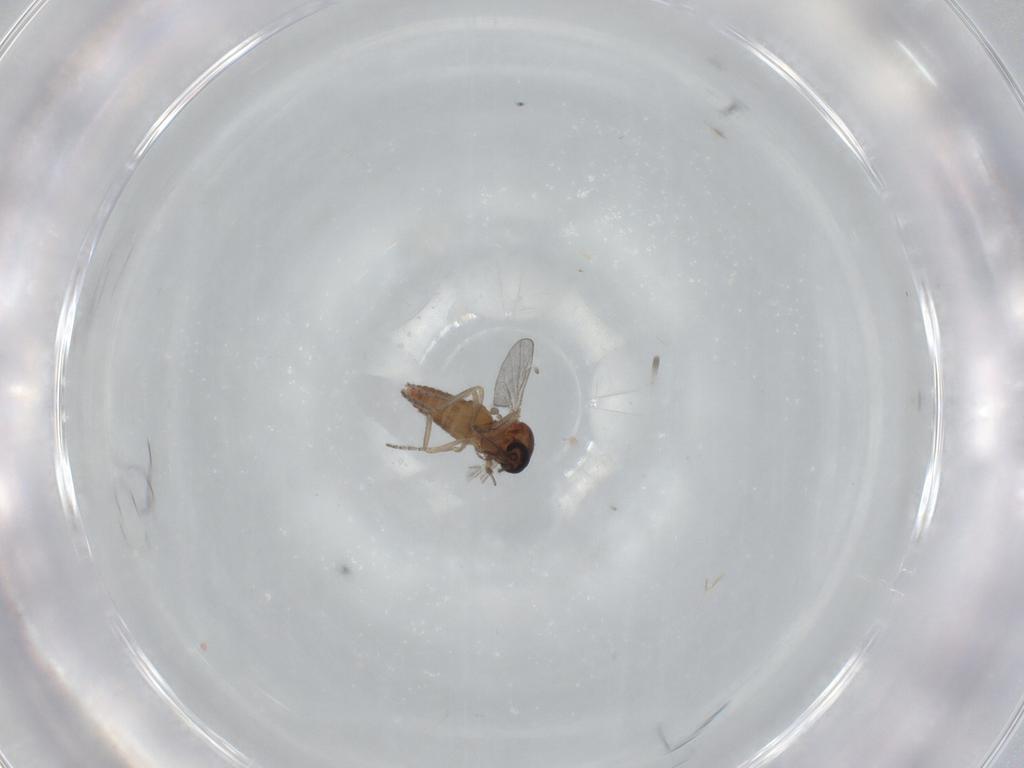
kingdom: Animalia
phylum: Arthropoda
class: Insecta
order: Diptera
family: Ceratopogonidae
